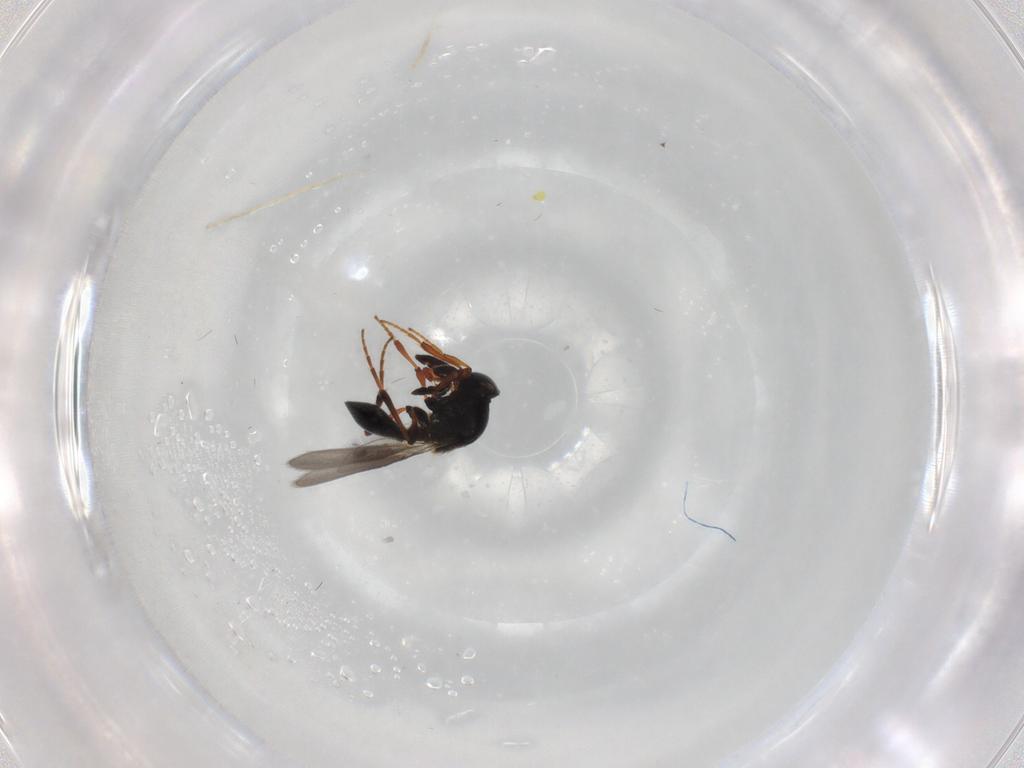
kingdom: Animalia
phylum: Arthropoda
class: Insecta
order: Hymenoptera
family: Platygastridae
